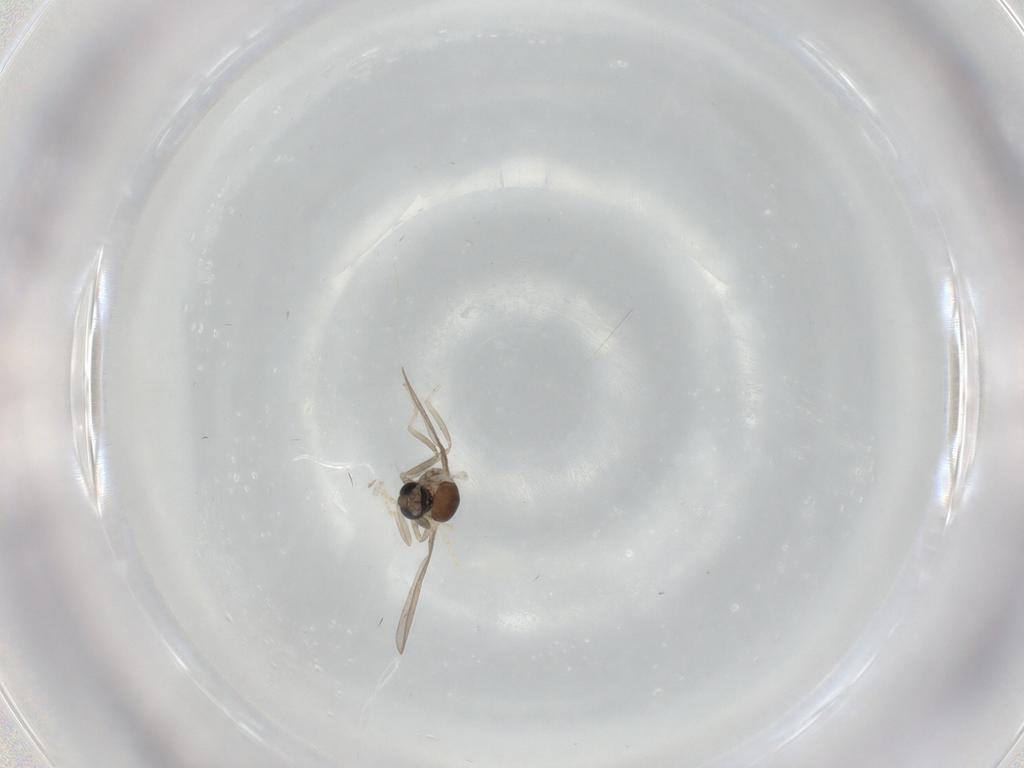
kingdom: Animalia
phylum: Arthropoda
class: Insecta
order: Diptera
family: Cecidomyiidae
